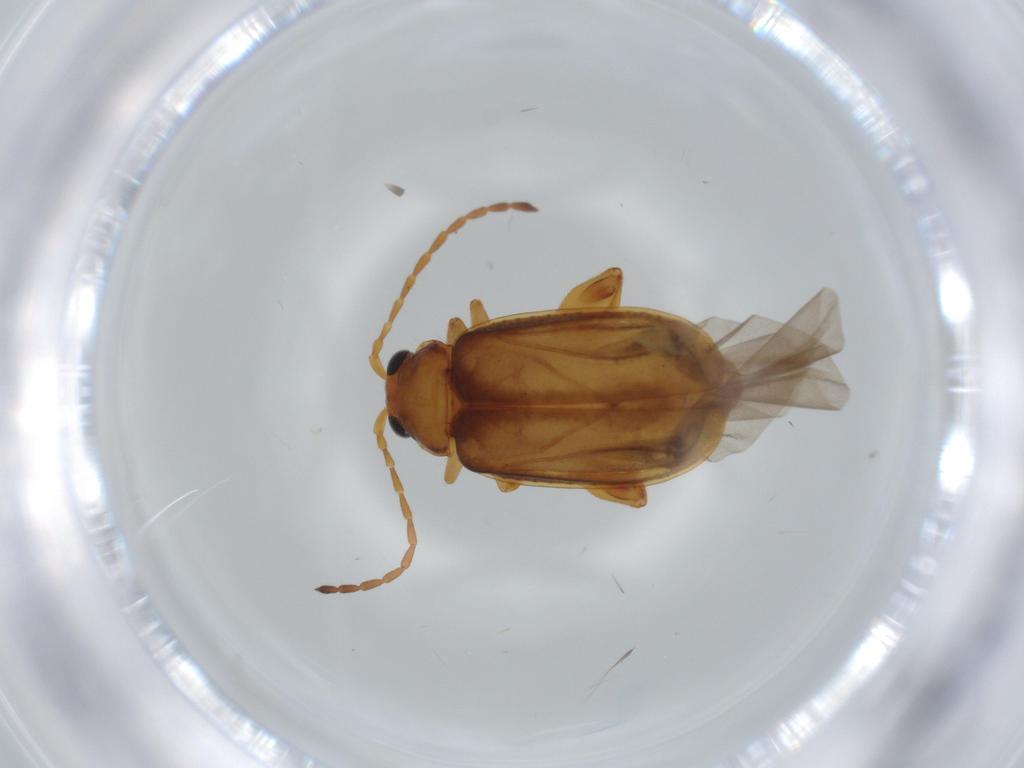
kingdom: Animalia
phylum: Arthropoda
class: Insecta
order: Coleoptera
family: Chrysomelidae
